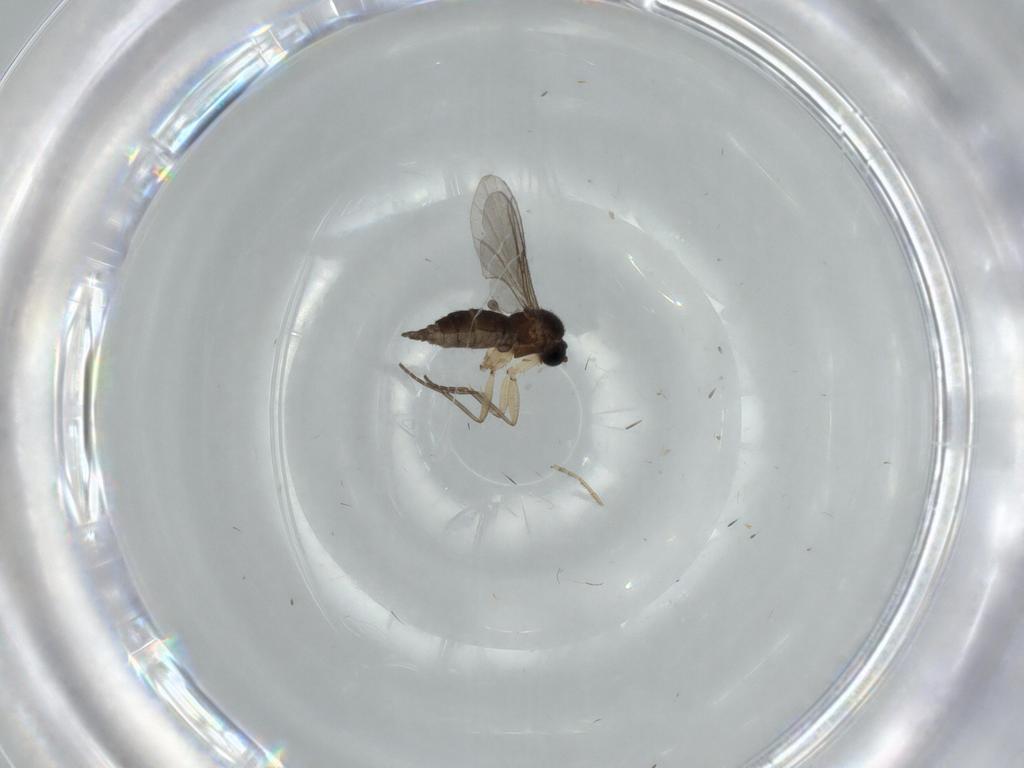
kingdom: Animalia
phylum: Arthropoda
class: Insecta
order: Diptera
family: Sciaridae
